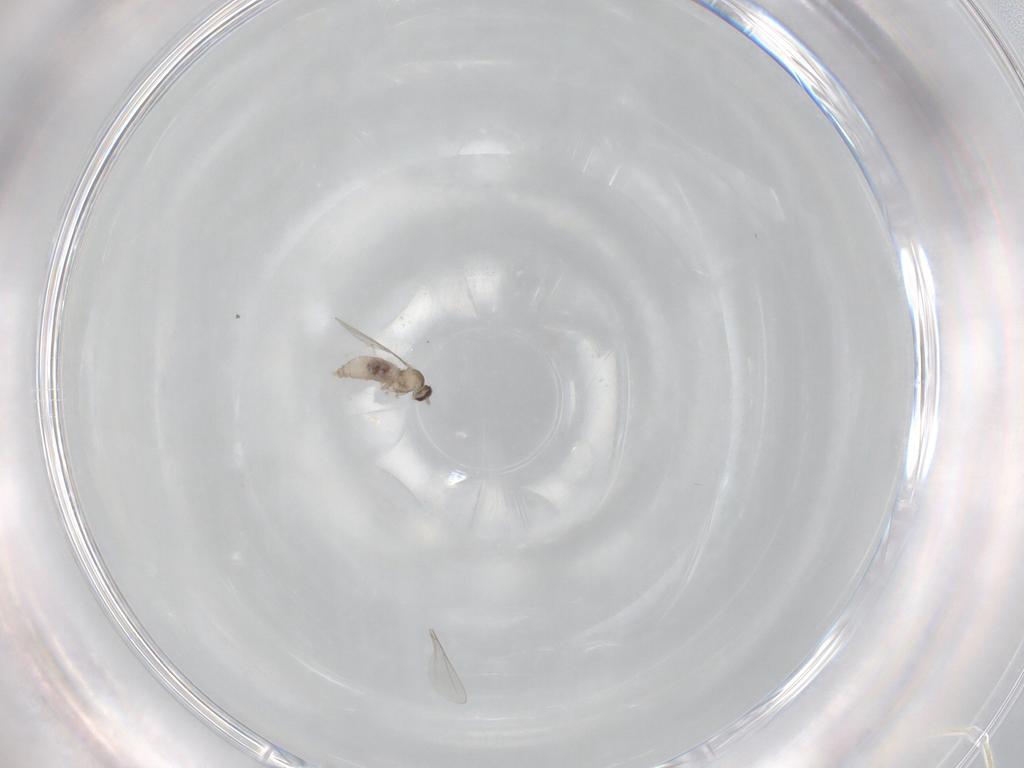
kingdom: Animalia
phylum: Arthropoda
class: Insecta
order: Diptera
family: Cecidomyiidae
